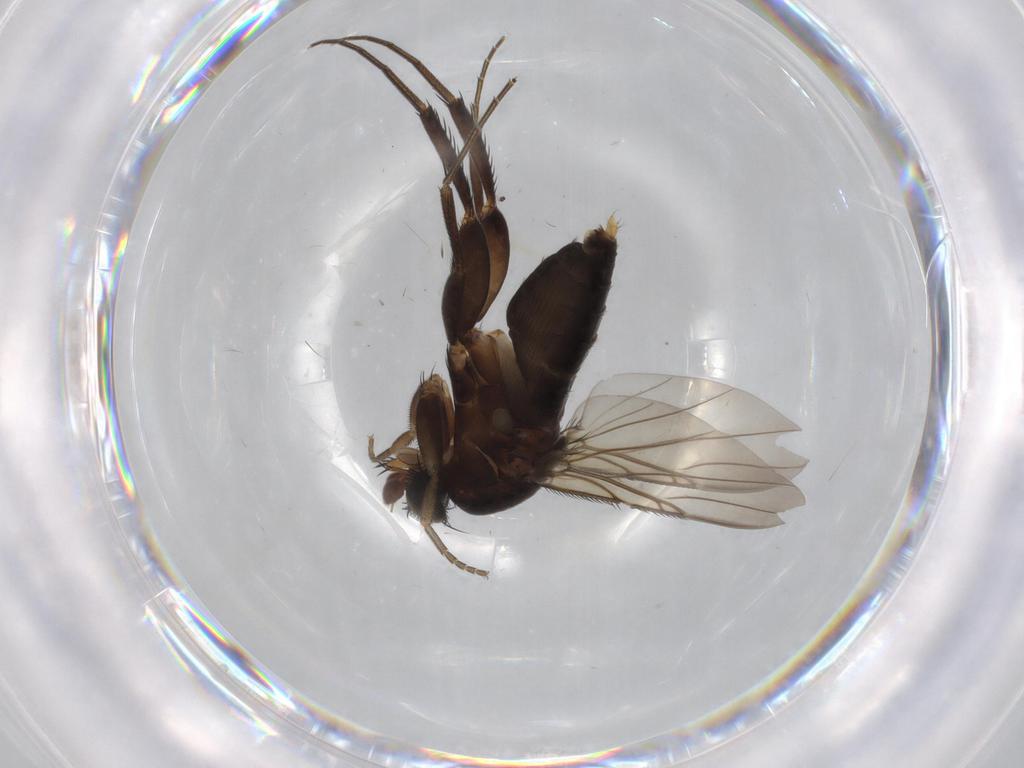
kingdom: Animalia
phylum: Arthropoda
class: Insecta
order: Diptera
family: Phoridae
